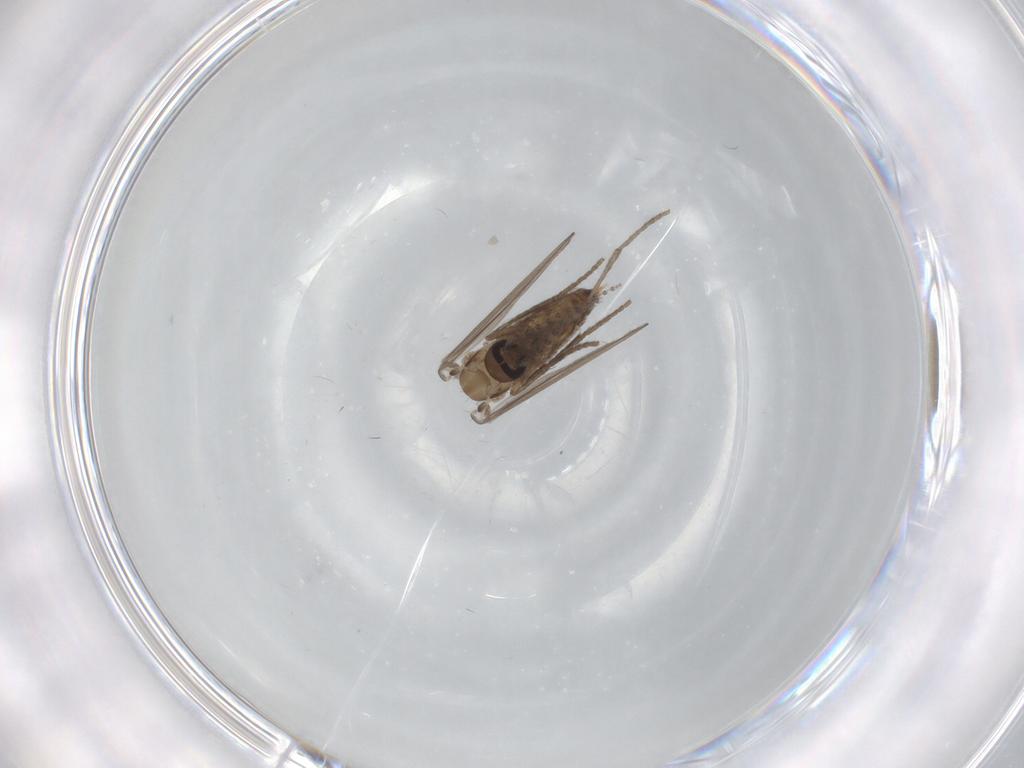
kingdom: Animalia
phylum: Arthropoda
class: Insecta
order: Diptera
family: Psychodidae
